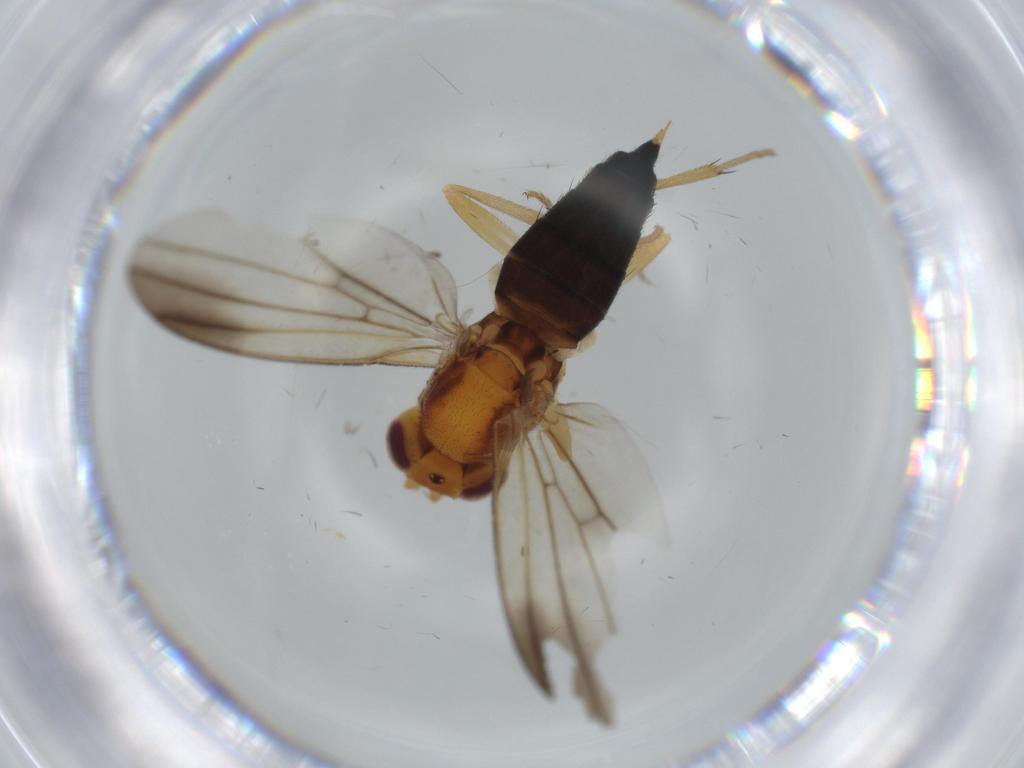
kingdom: Animalia
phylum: Arthropoda
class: Insecta
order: Diptera
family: Clusiidae
